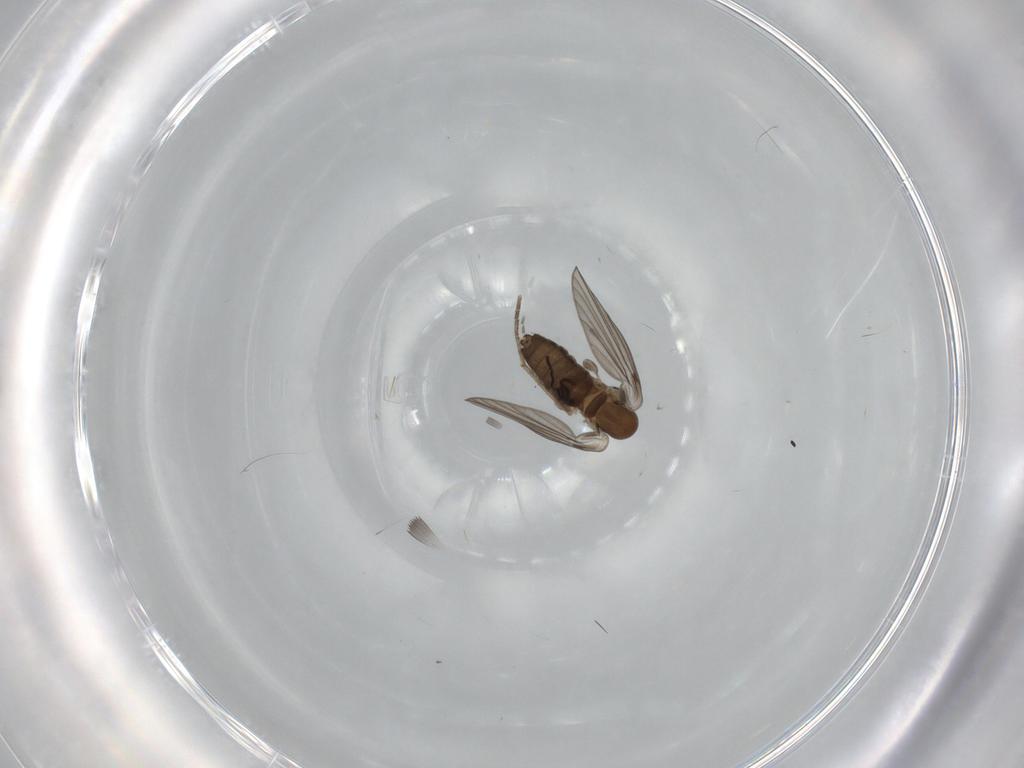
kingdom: Animalia
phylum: Arthropoda
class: Insecta
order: Diptera
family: Psychodidae
